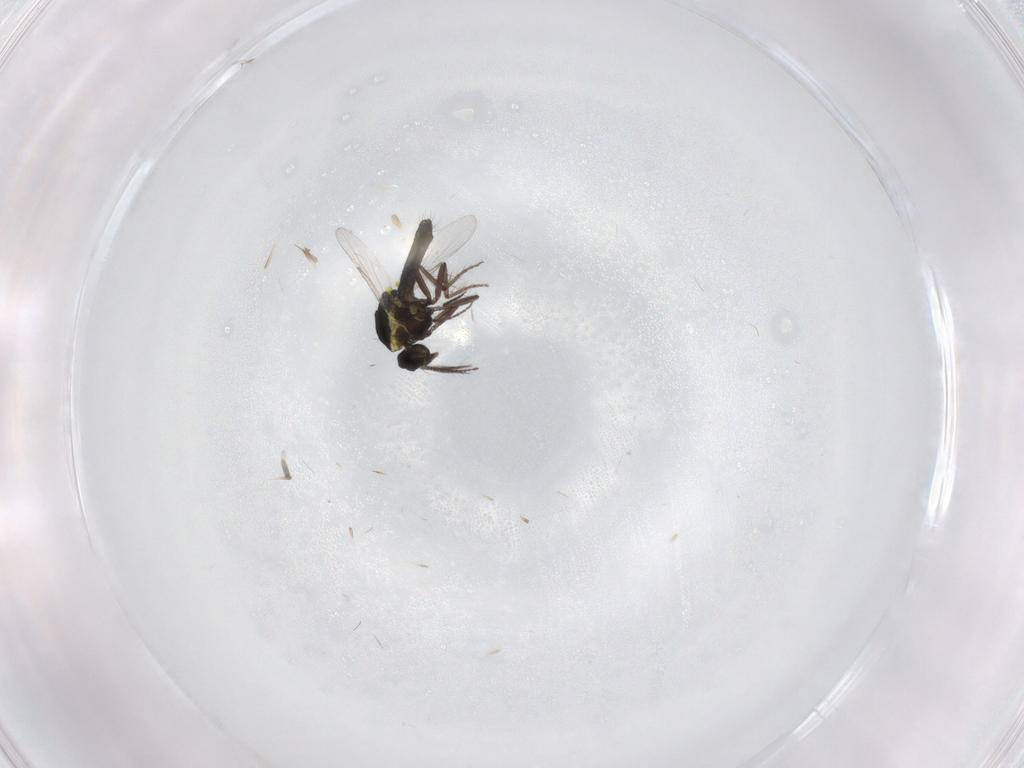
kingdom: Animalia
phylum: Arthropoda
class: Insecta
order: Diptera
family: Ceratopogonidae
